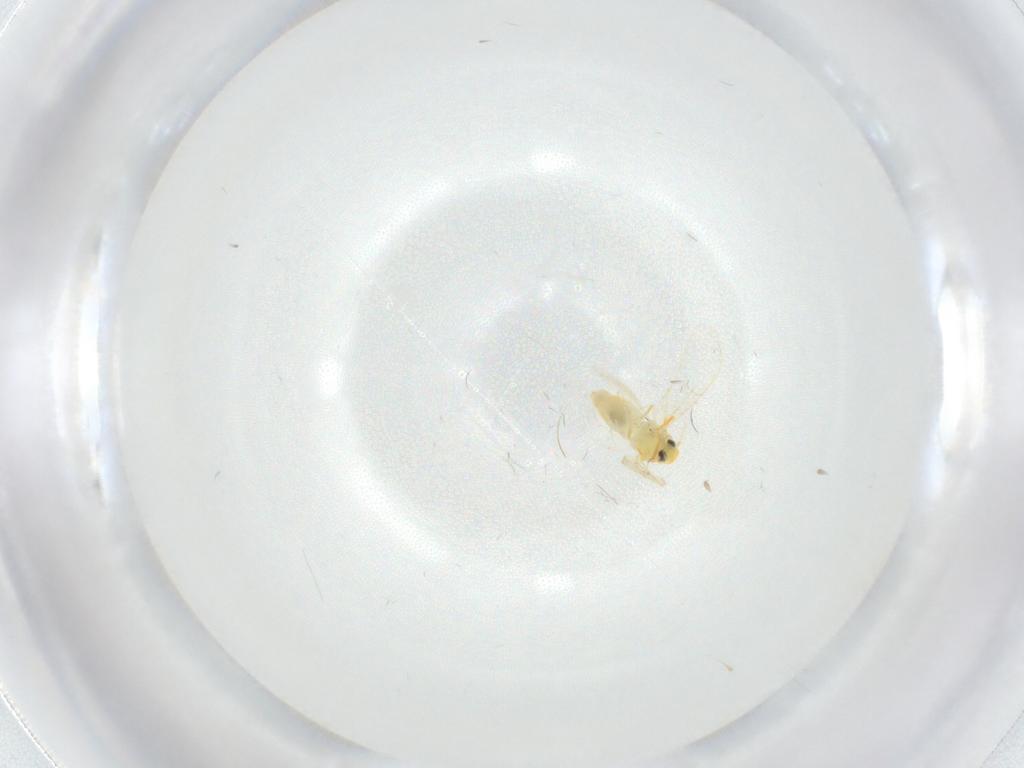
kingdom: Animalia
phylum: Arthropoda
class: Insecta
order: Hemiptera
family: Aleyrodidae
